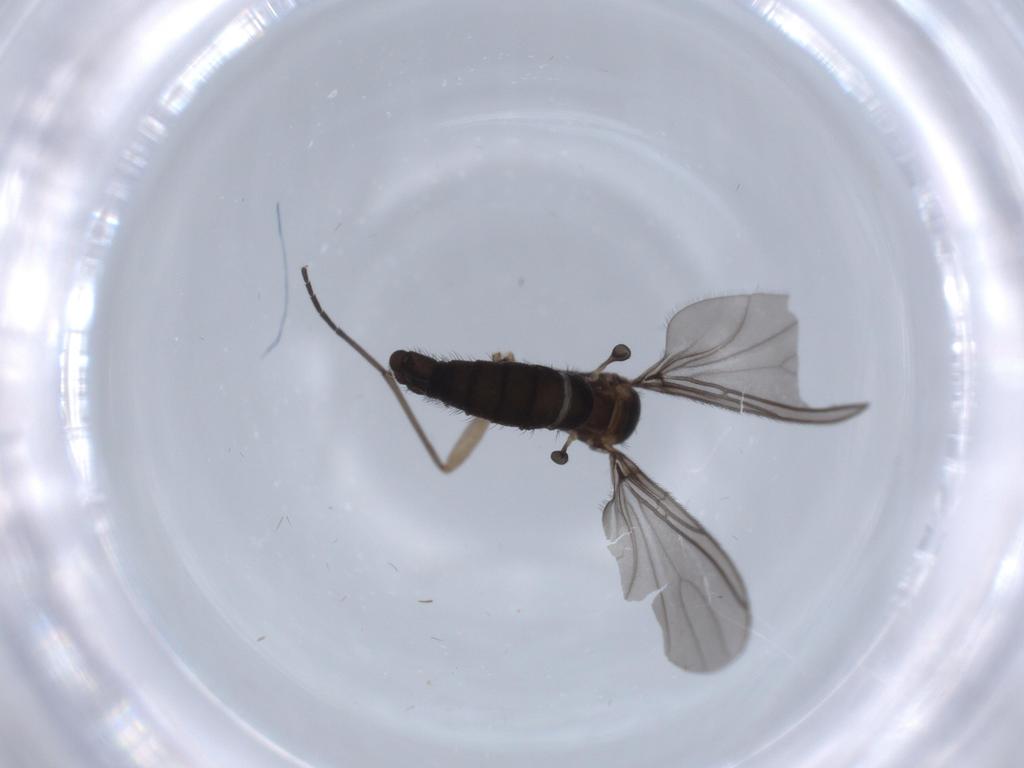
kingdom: Animalia
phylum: Arthropoda
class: Insecta
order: Diptera
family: Sciaridae
